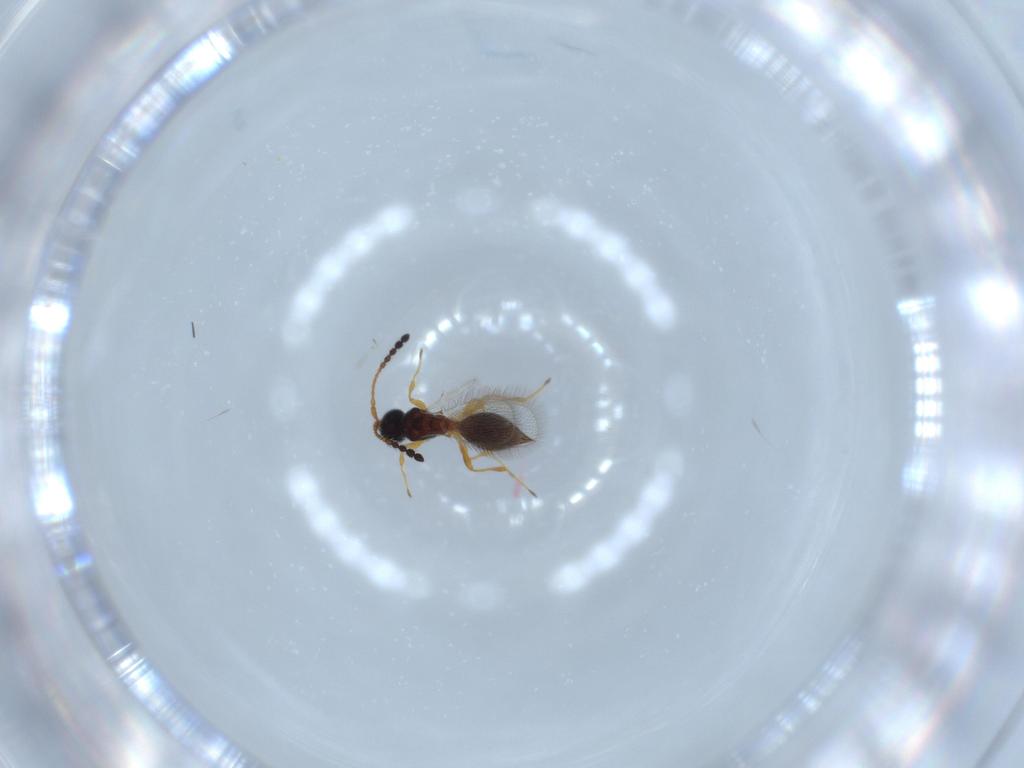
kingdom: Animalia
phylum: Arthropoda
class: Insecta
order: Hymenoptera
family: Diapriidae
